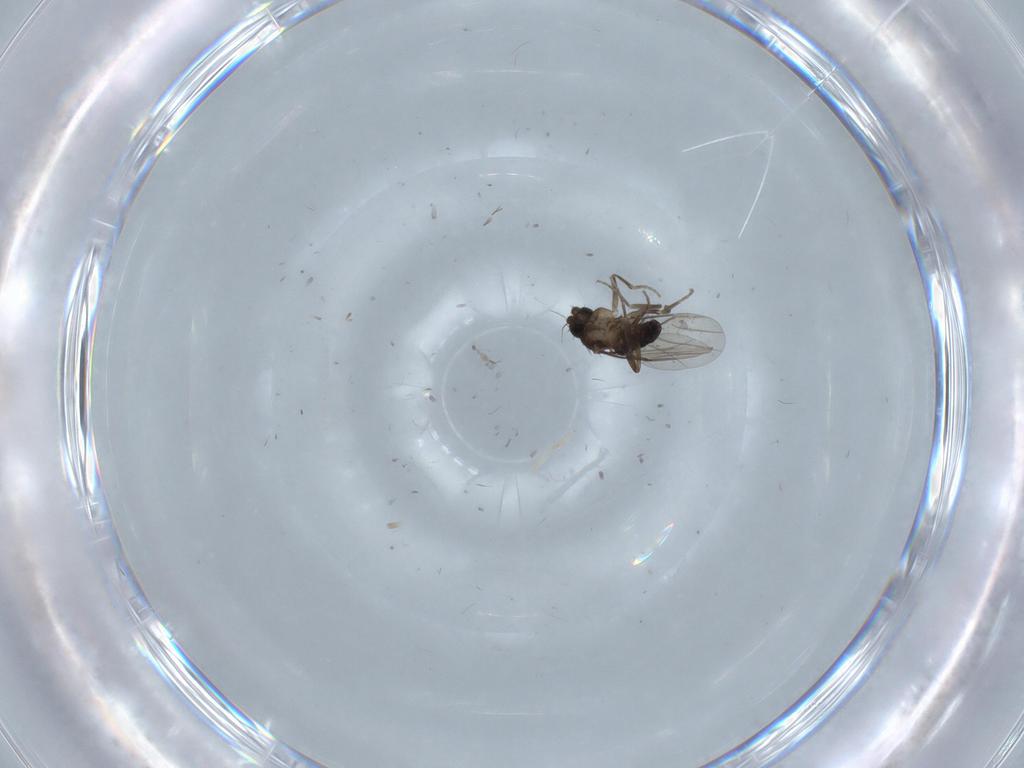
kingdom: Animalia
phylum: Arthropoda
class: Insecta
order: Diptera
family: Phoridae
